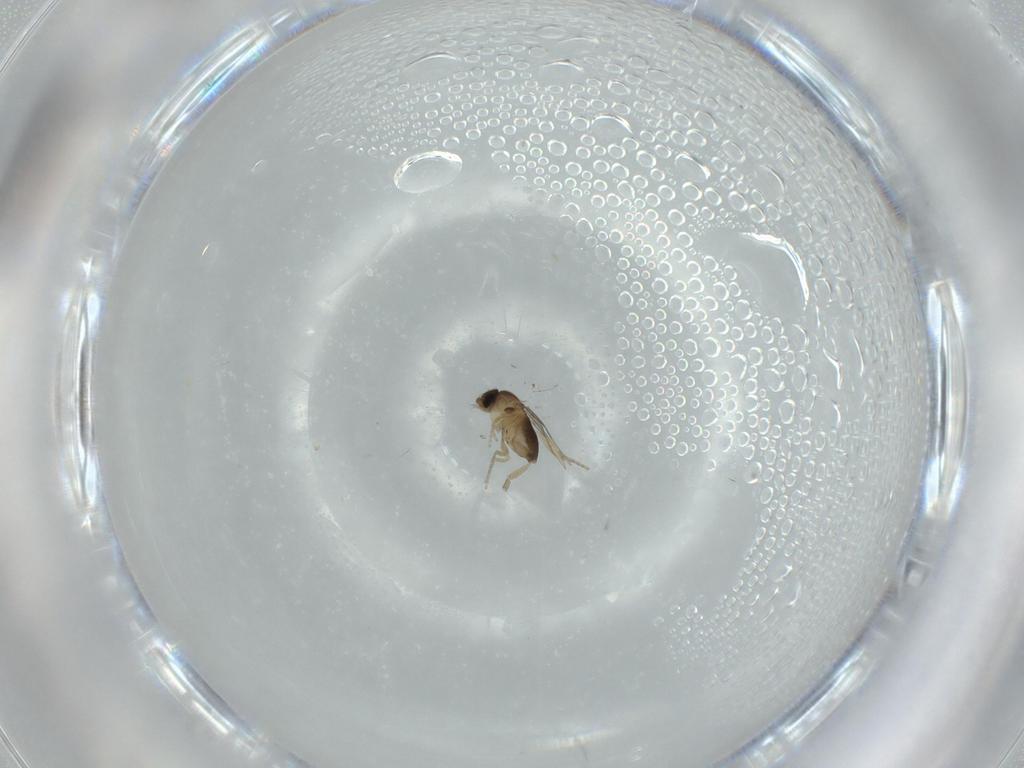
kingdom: Animalia
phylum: Arthropoda
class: Insecta
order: Diptera
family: Phoridae
